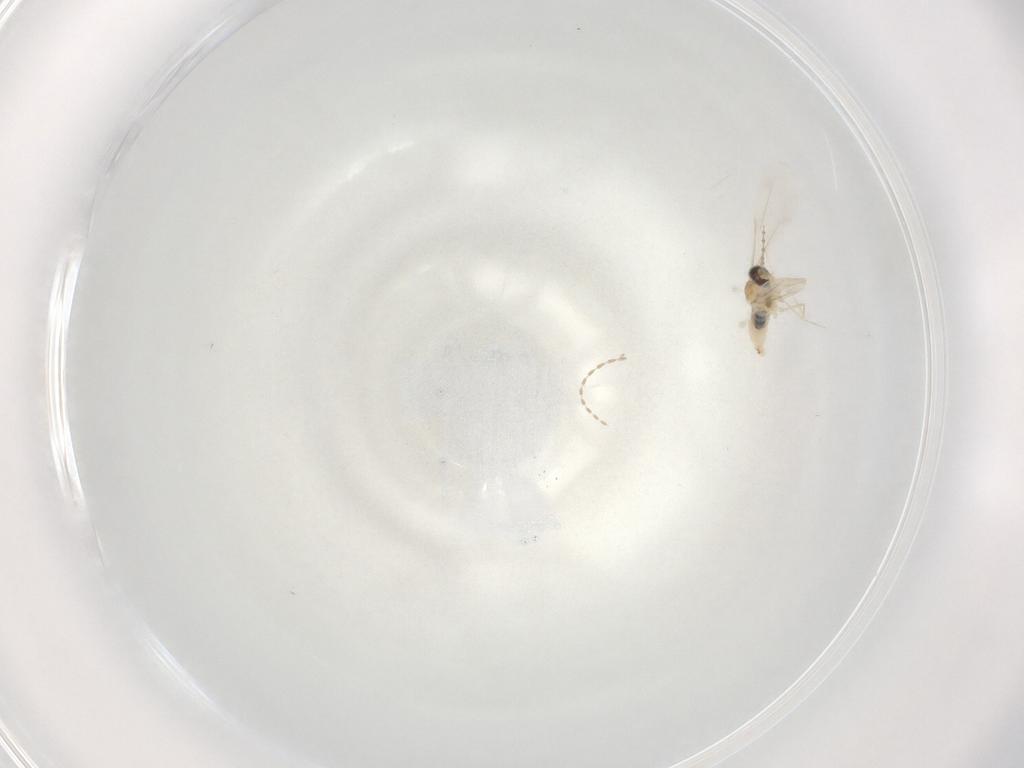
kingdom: Animalia
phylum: Arthropoda
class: Insecta
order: Diptera
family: Cecidomyiidae
